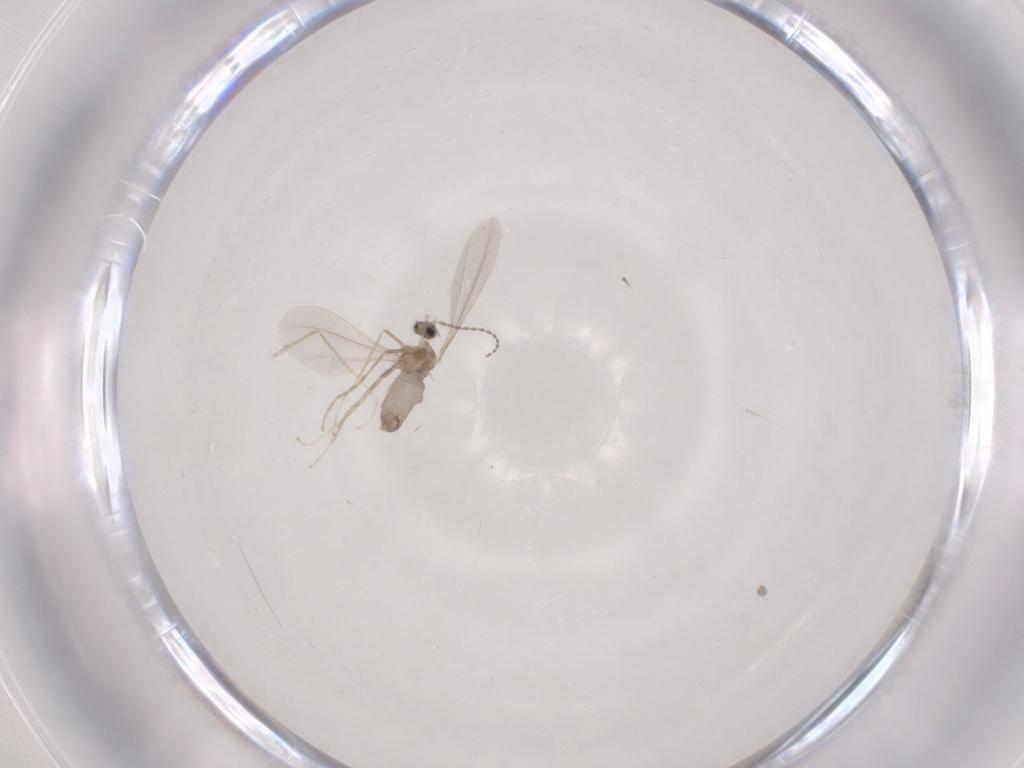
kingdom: Animalia
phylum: Arthropoda
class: Insecta
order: Diptera
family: Cecidomyiidae
